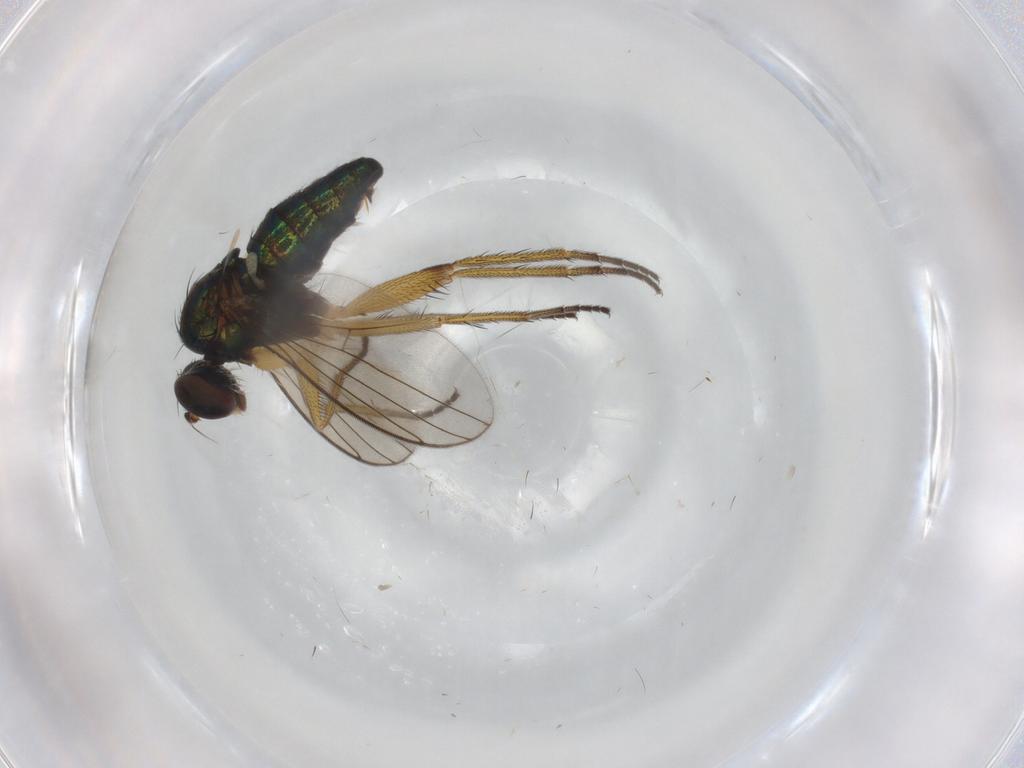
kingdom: Animalia
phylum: Arthropoda
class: Insecta
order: Diptera
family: Dolichopodidae
